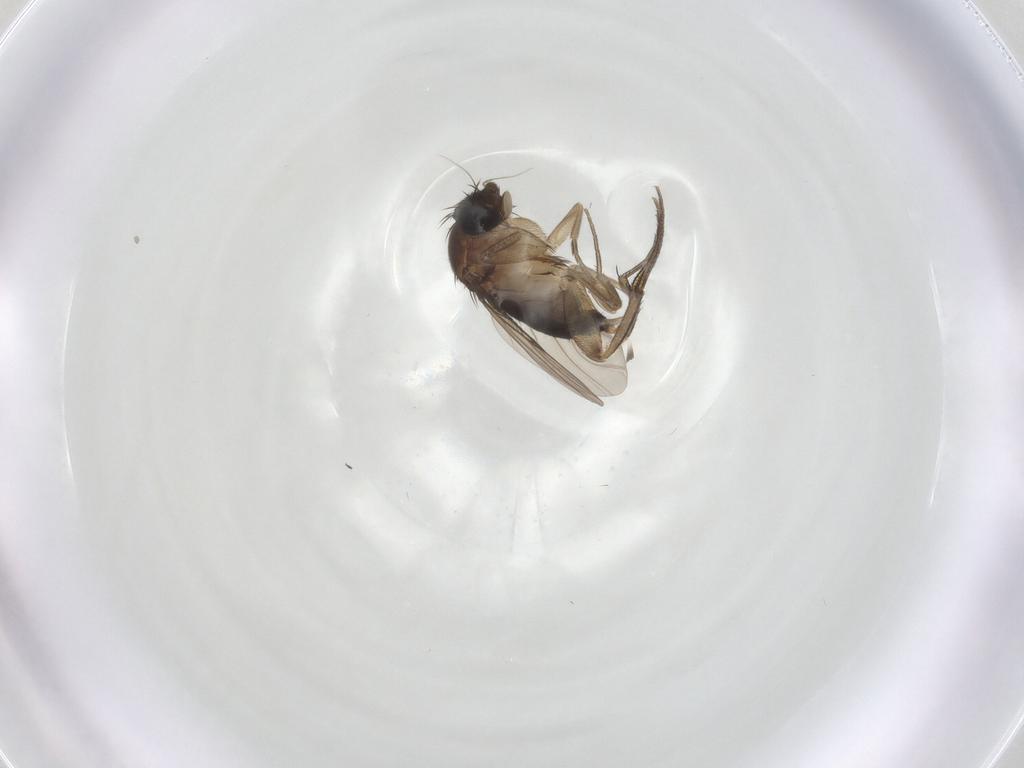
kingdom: Animalia
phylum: Arthropoda
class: Insecta
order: Diptera
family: Phoridae
